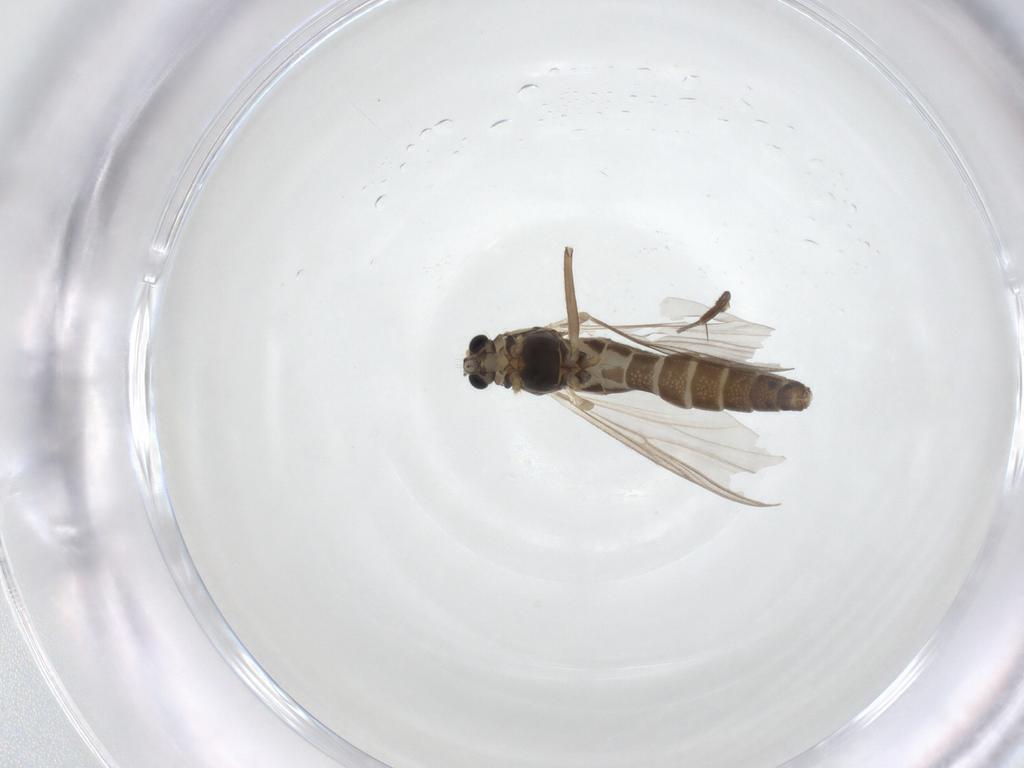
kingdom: Animalia
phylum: Arthropoda
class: Insecta
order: Diptera
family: Chironomidae
